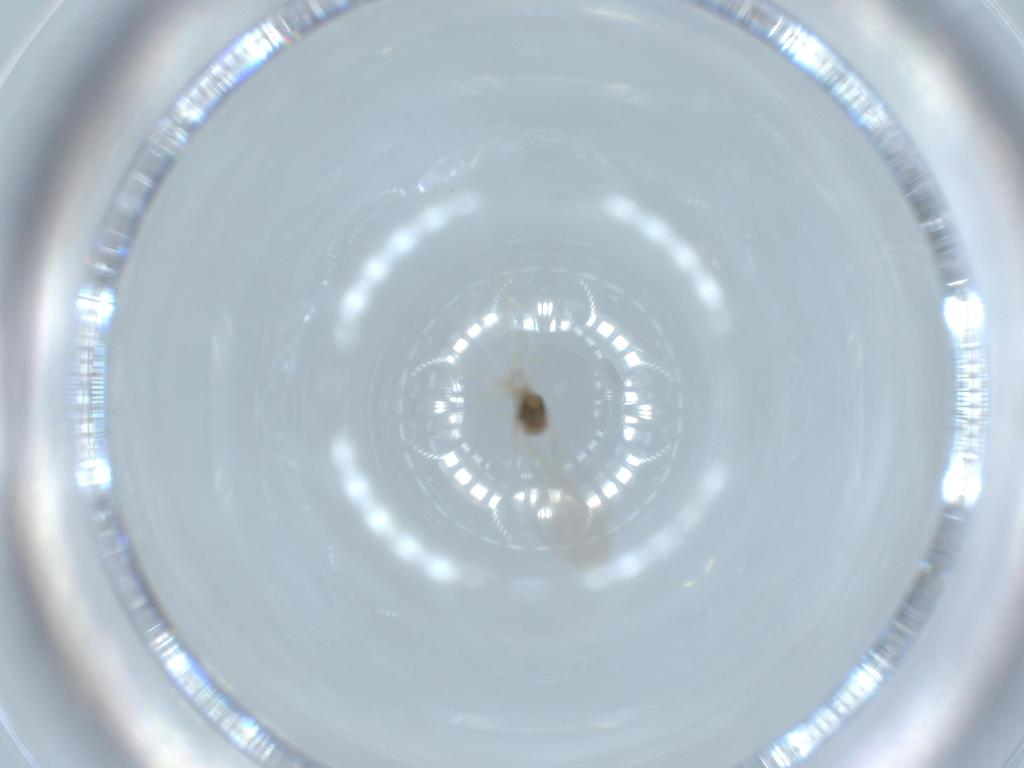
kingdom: Animalia
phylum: Arthropoda
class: Insecta
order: Diptera
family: Cecidomyiidae
